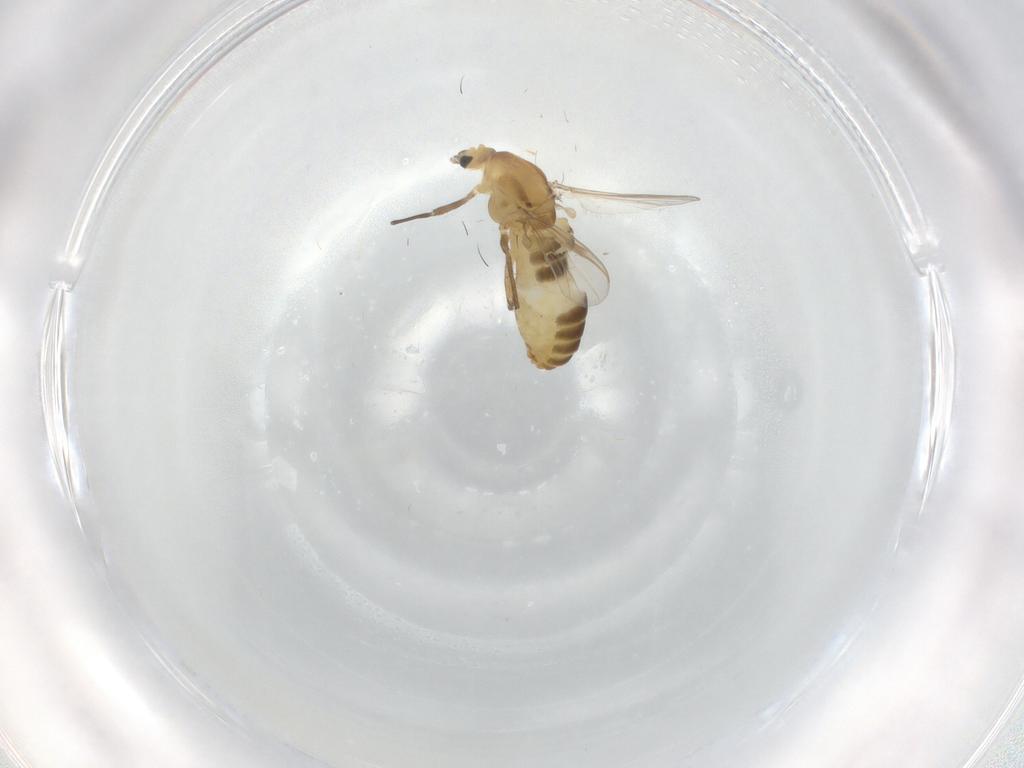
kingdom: Animalia
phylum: Arthropoda
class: Insecta
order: Diptera
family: Chironomidae
